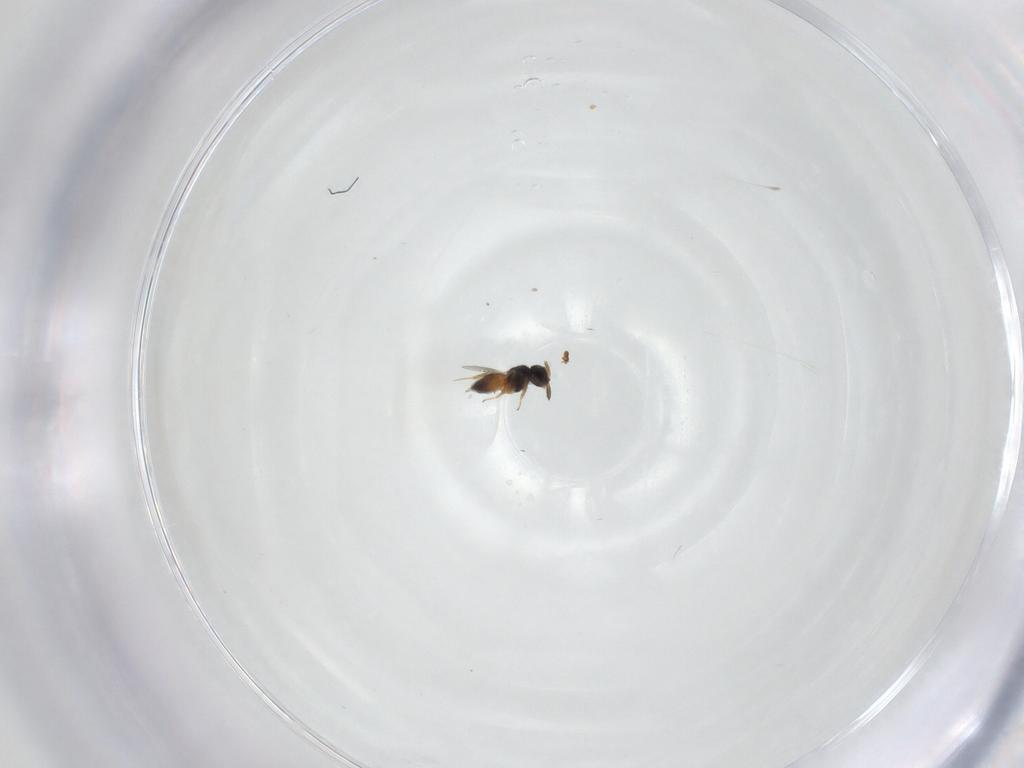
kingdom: Animalia
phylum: Arthropoda
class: Insecta
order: Hymenoptera
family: Scelionidae
